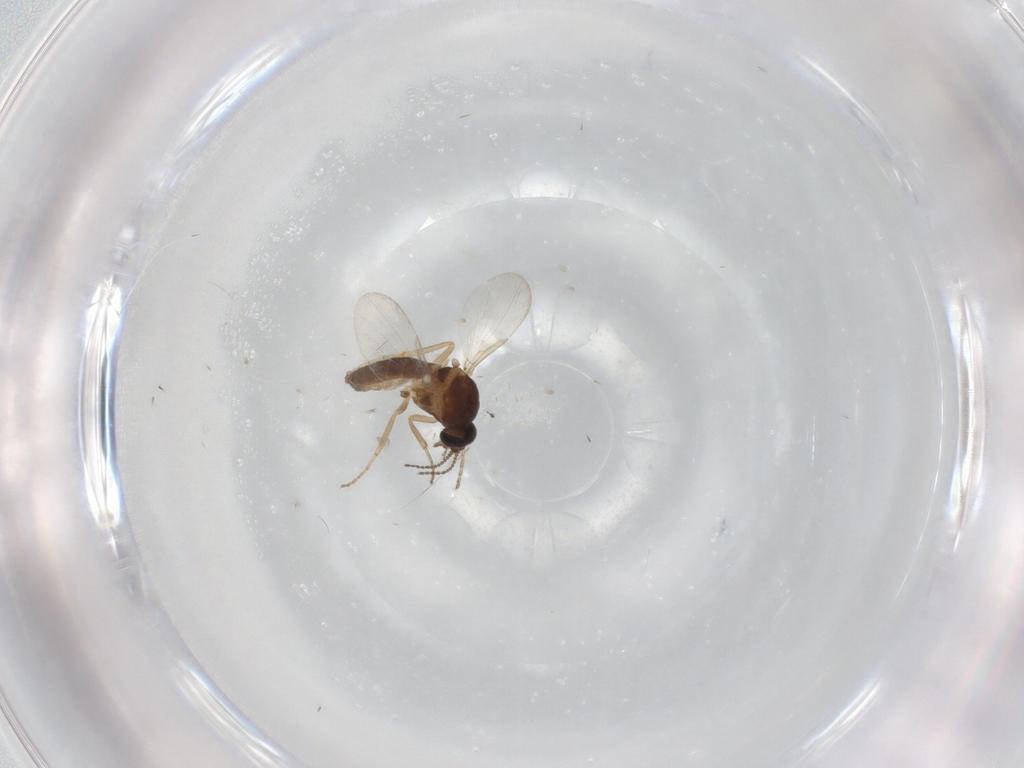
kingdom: Animalia
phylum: Arthropoda
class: Insecta
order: Diptera
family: Ceratopogonidae
